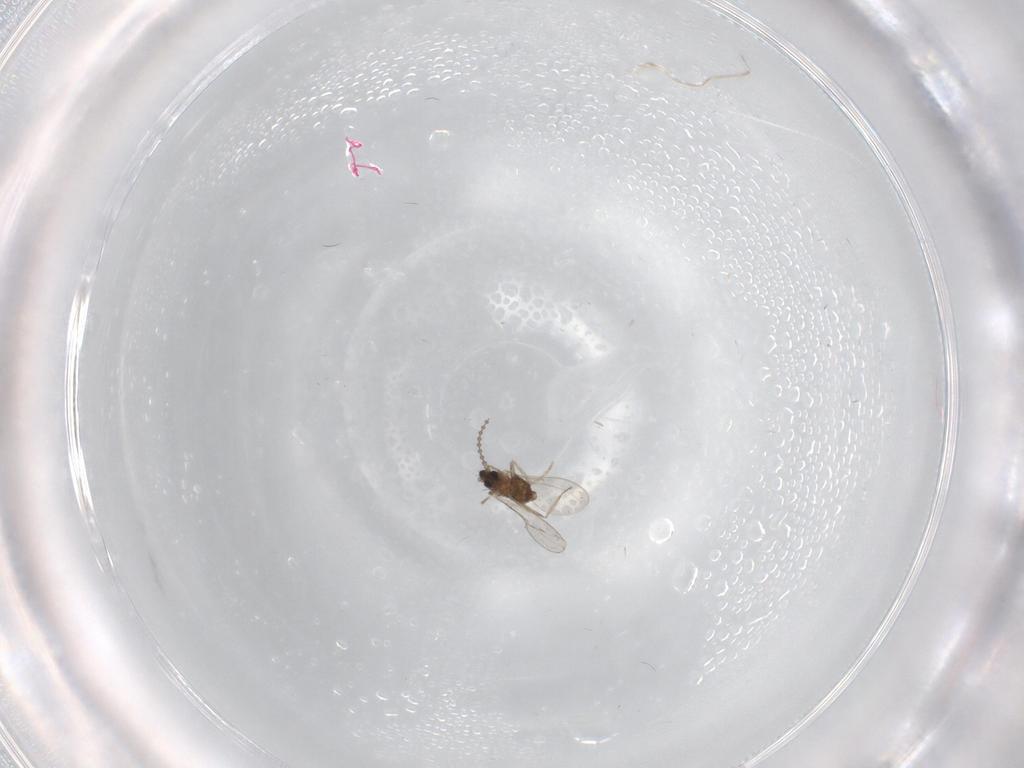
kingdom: Animalia
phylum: Arthropoda
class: Insecta
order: Diptera
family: Cecidomyiidae
